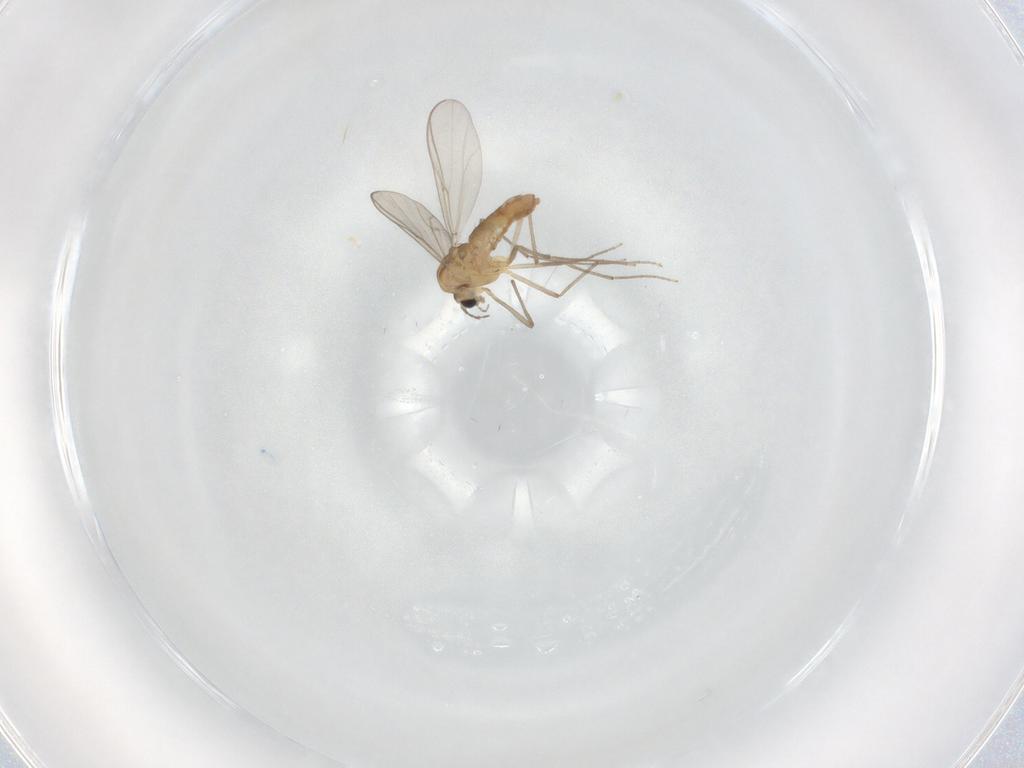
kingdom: Animalia
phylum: Arthropoda
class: Insecta
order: Diptera
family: Chironomidae
